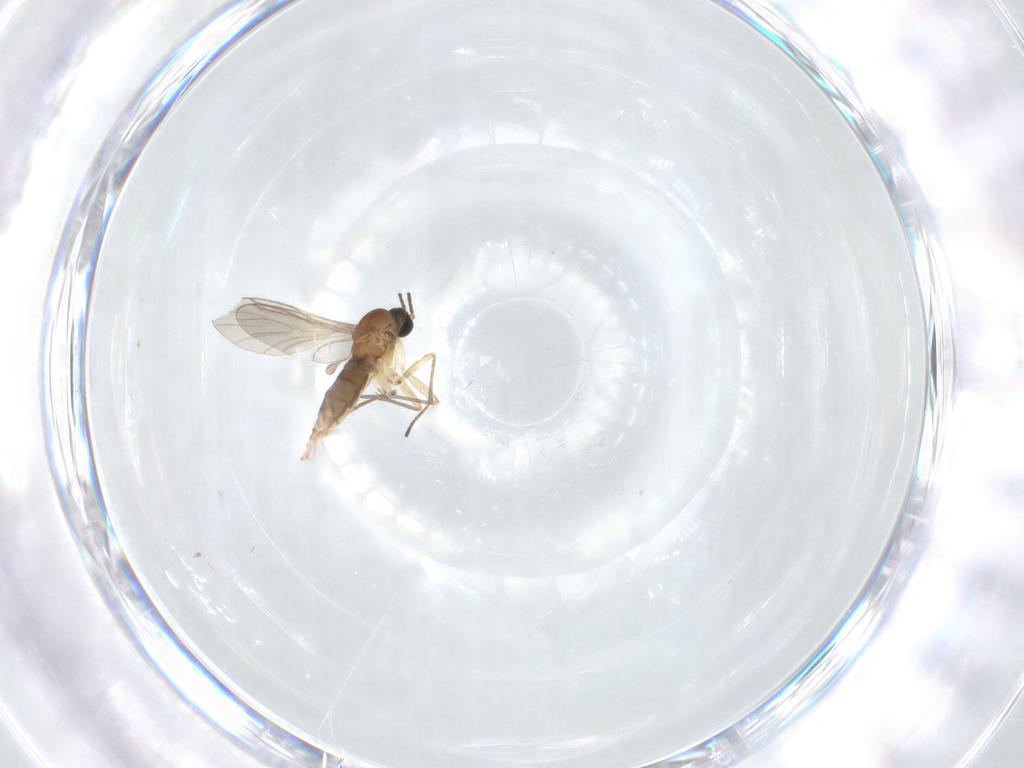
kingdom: Animalia
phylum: Arthropoda
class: Insecta
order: Diptera
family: Sciaridae
